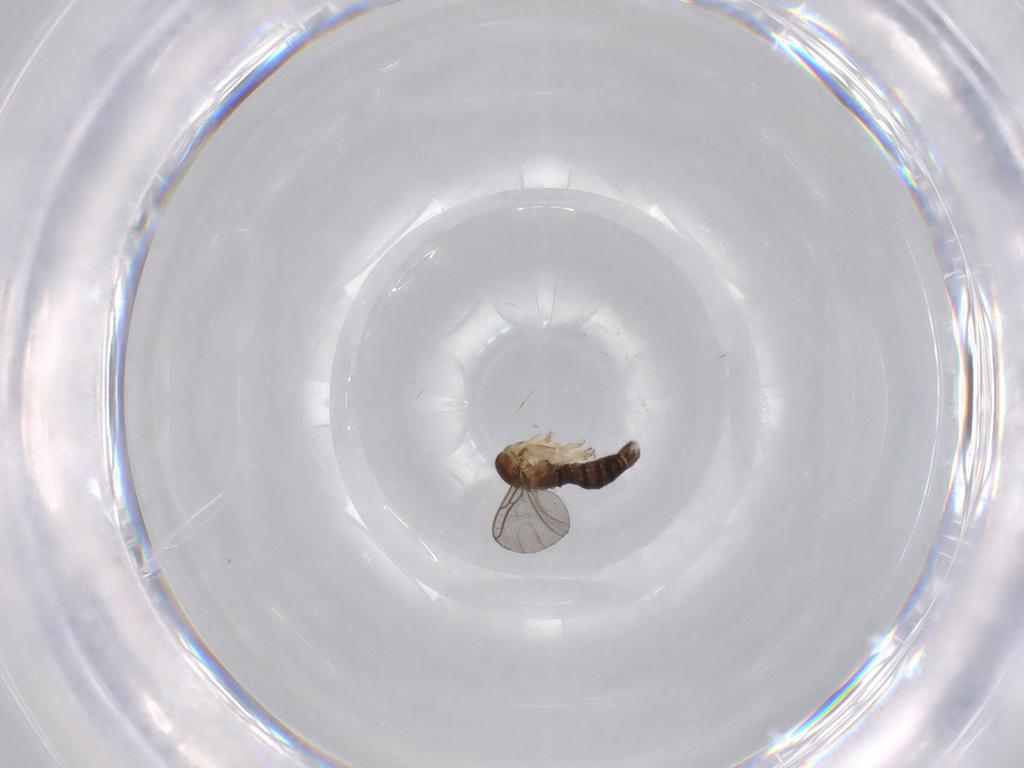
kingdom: Animalia
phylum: Arthropoda
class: Insecta
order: Diptera
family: Sciaridae
